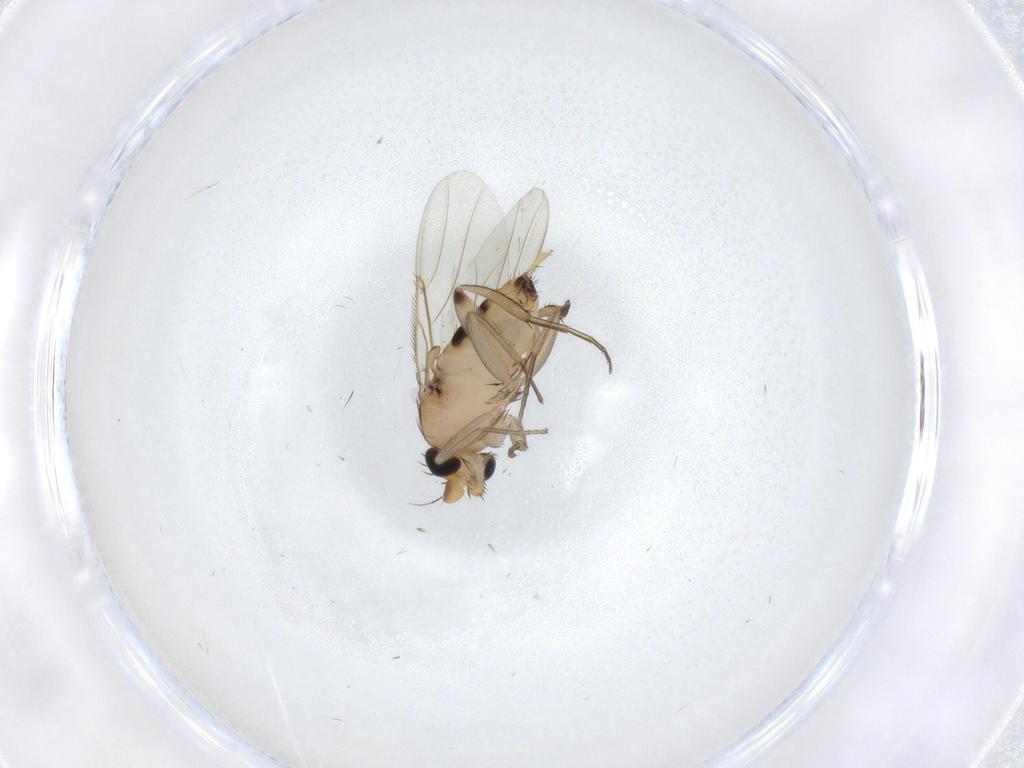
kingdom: Animalia
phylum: Arthropoda
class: Insecta
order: Diptera
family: Phoridae
